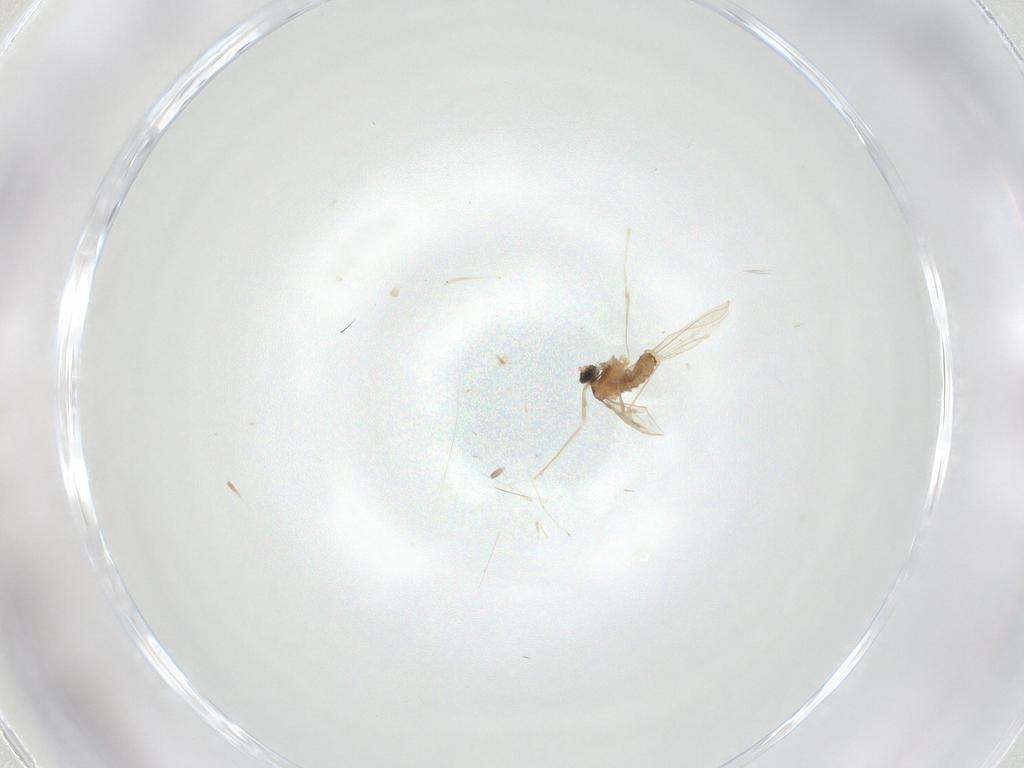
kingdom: Animalia
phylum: Arthropoda
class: Insecta
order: Diptera
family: Cecidomyiidae
